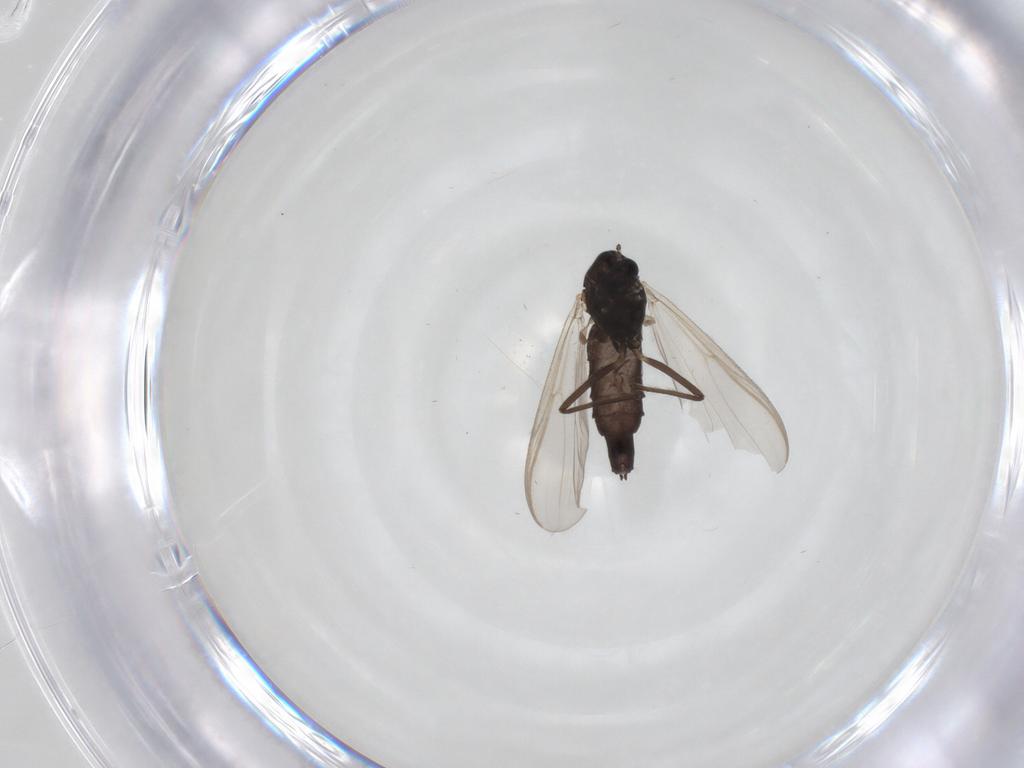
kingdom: Animalia
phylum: Arthropoda
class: Insecta
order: Diptera
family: Chironomidae
